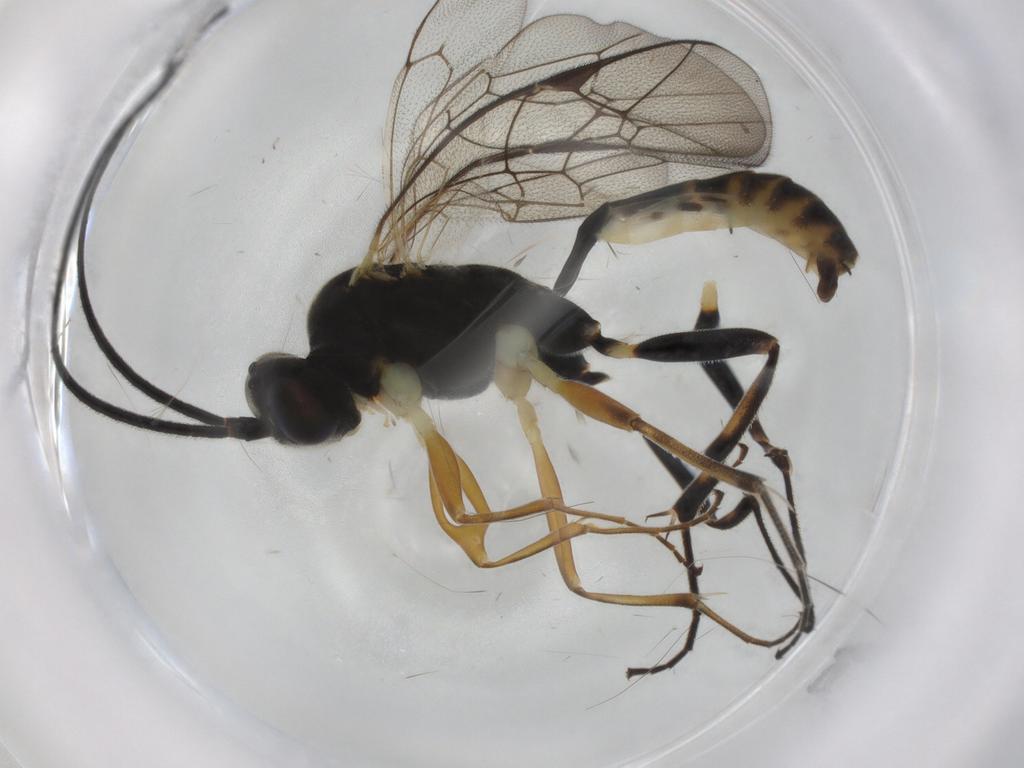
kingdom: Animalia
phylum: Arthropoda
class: Insecta
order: Hymenoptera
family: Ichneumonidae
